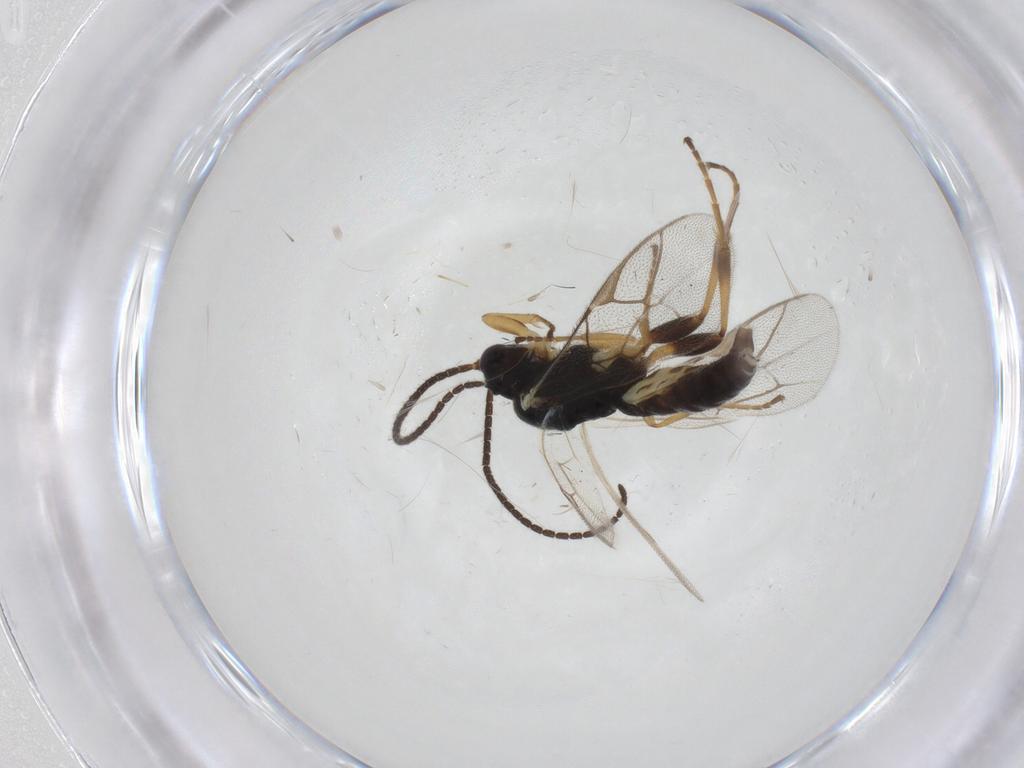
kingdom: Animalia
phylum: Arthropoda
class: Insecta
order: Hymenoptera
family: Ichneumonidae
